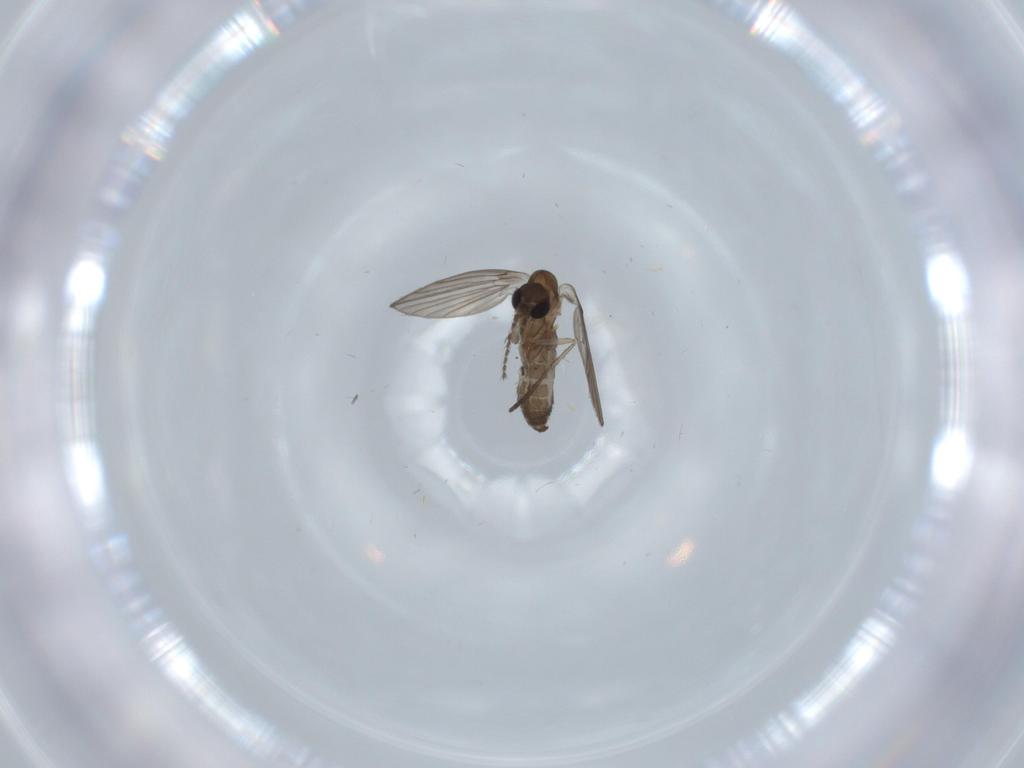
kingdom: Animalia
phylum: Arthropoda
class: Insecta
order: Diptera
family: Psychodidae
